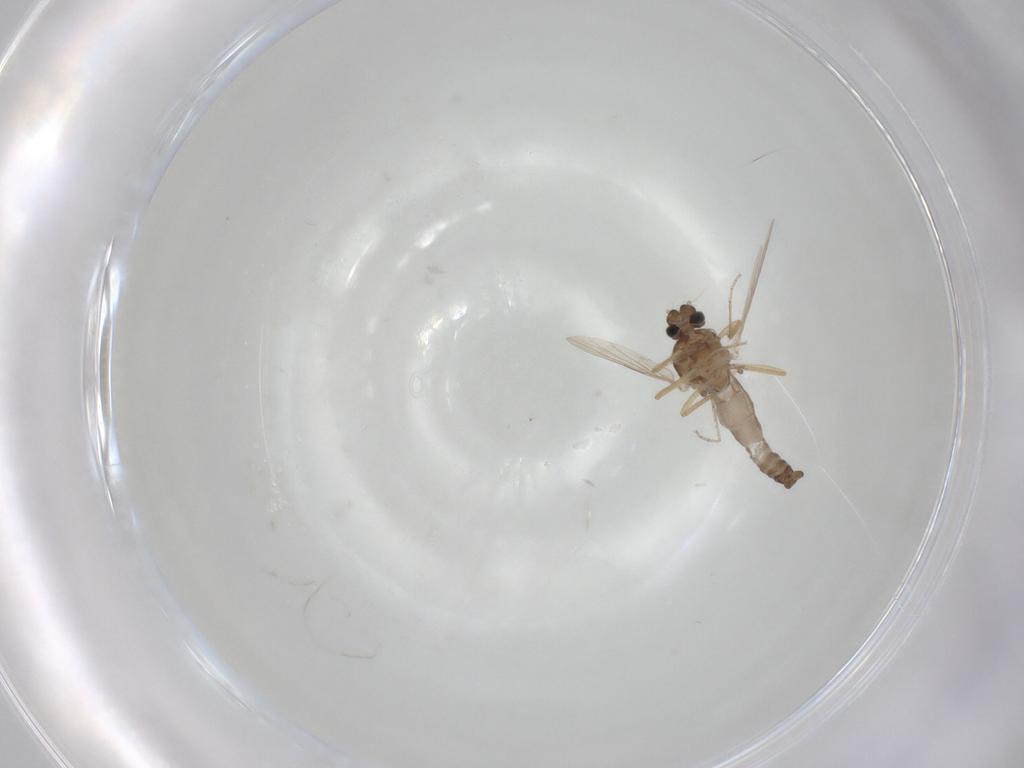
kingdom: Animalia
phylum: Arthropoda
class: Insecta
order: Diptera
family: Ceratopogonidae
